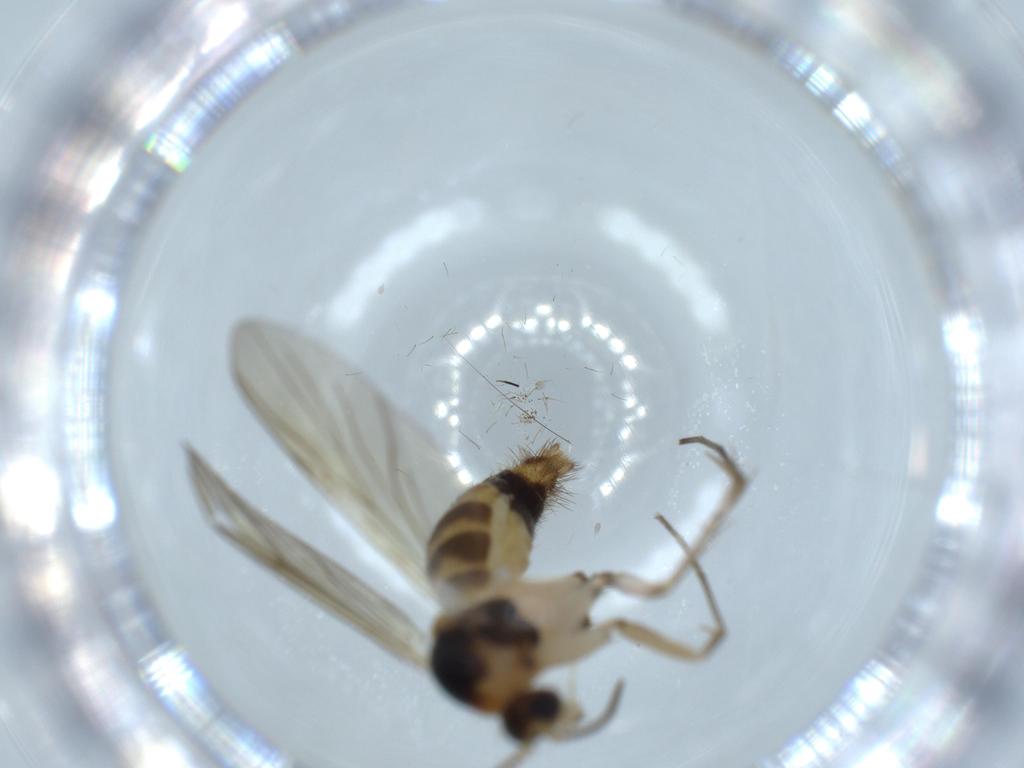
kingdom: Animalia
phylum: Arthropoda
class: Insecta
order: Diptera
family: Mycetophilidae
